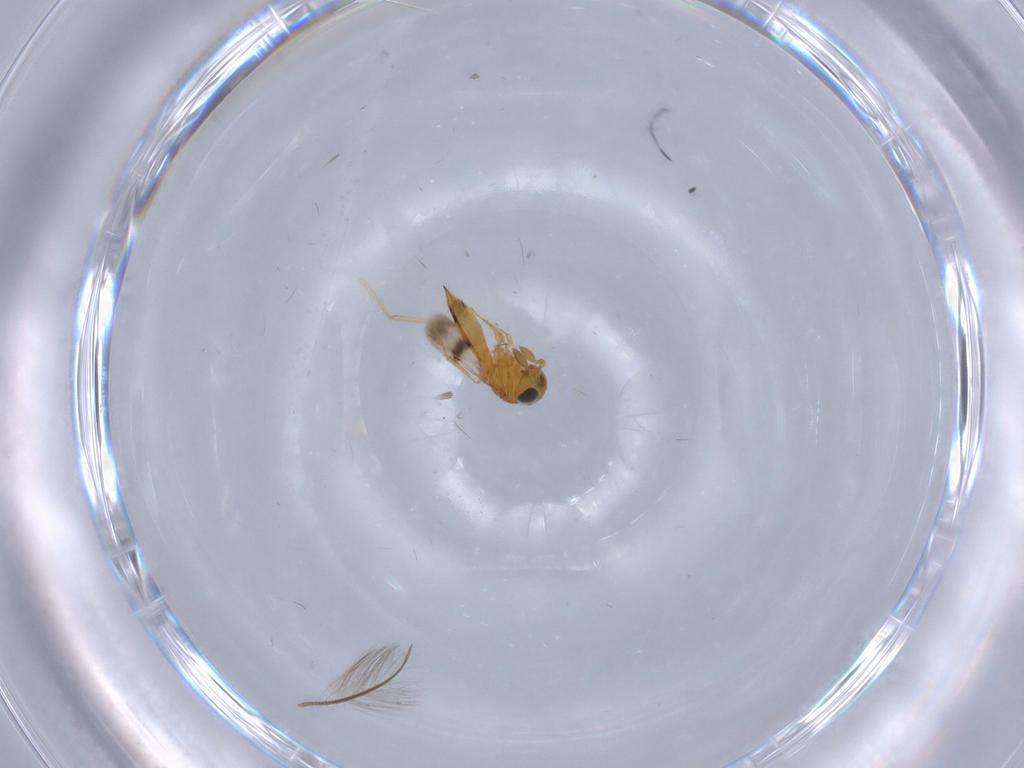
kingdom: Animalia
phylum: Arthropoda
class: Insecta
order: Hymenoptera
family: Scelionidae
